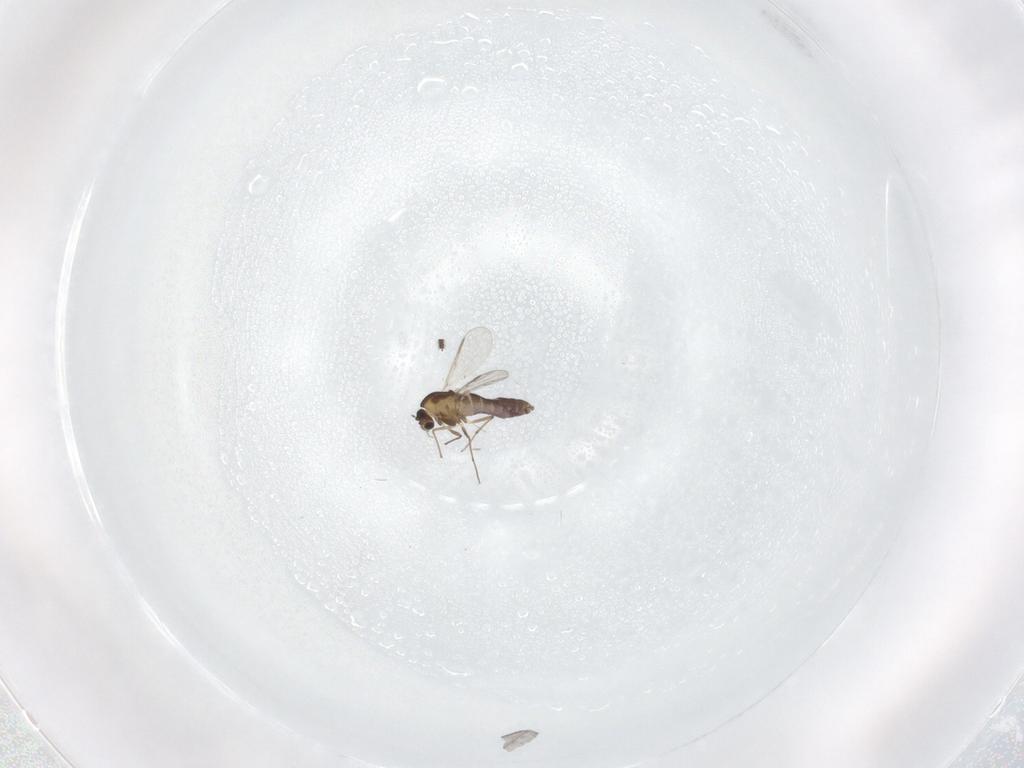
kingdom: Animalia
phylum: Arthropoda
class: Insecta
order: Diptera
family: Chironomidae
